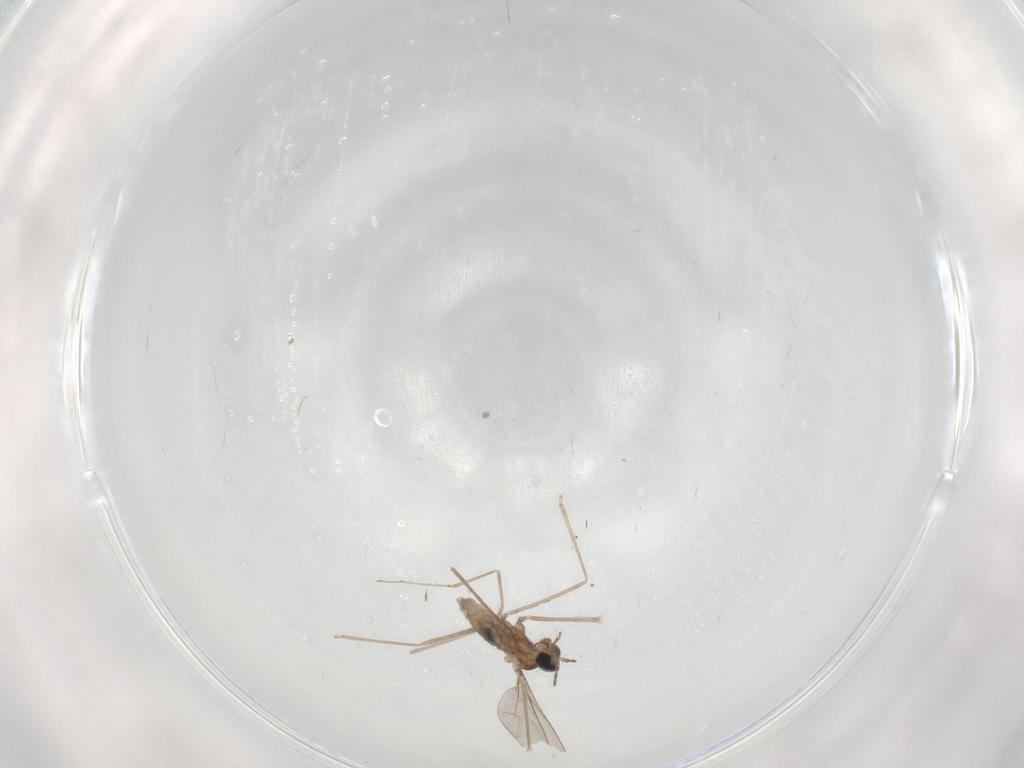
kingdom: Animalia
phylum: Arthropoda
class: Insecta
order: Diptera
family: Cecidomyiidae
